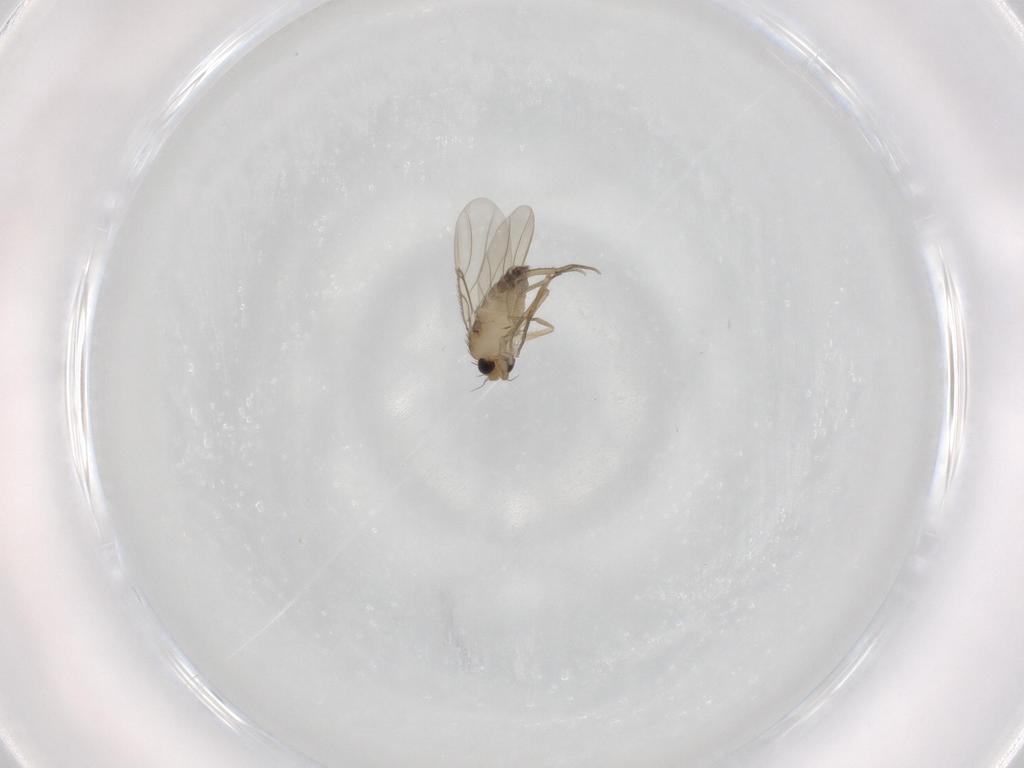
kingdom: Animalia
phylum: Arthropoda
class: Insecta
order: Diptera
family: Phoridae
